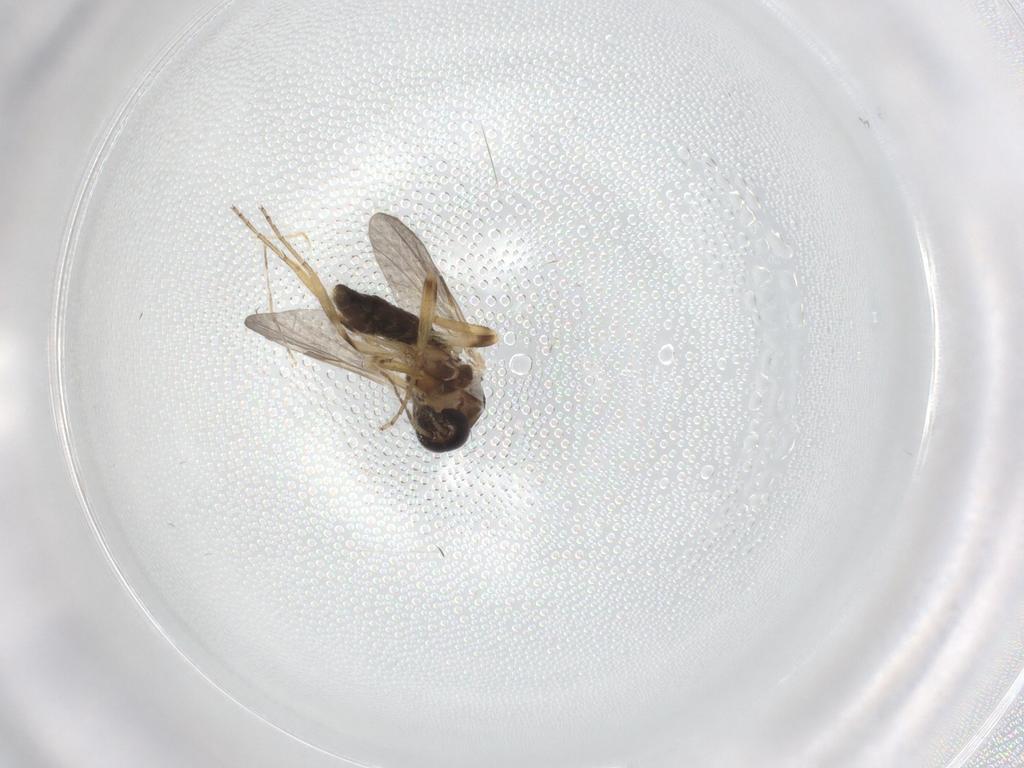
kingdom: Animalia
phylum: Arthropoda
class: Insecta
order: Diptera
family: Ceratopogonidae
